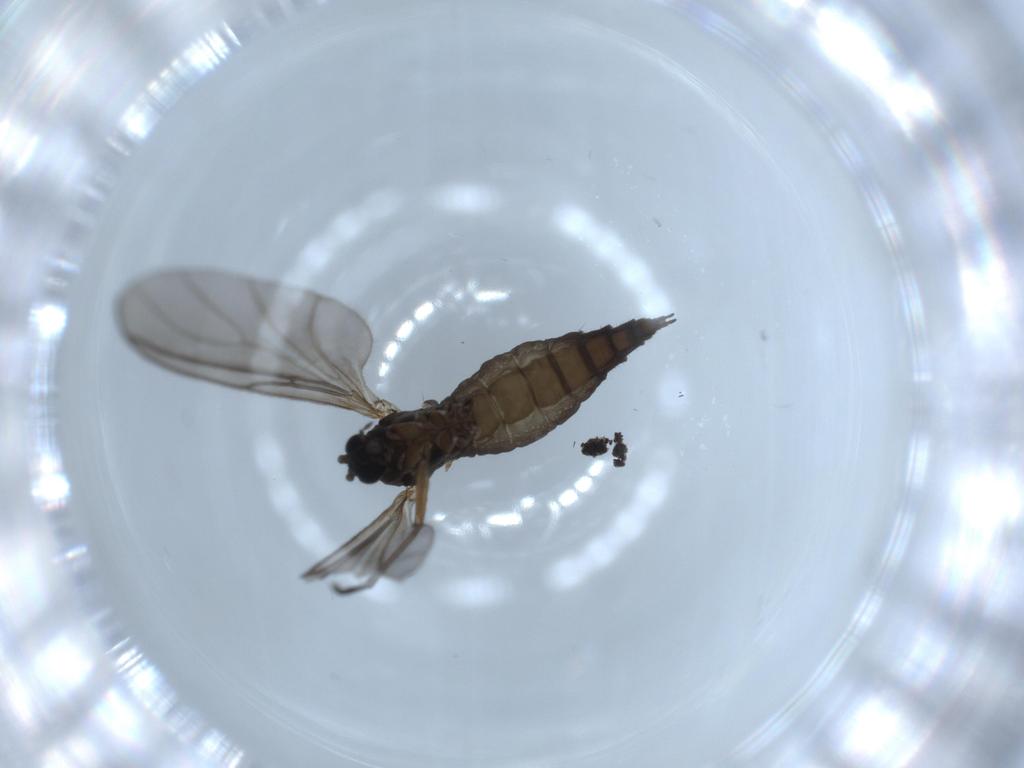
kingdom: Animalia
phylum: Arthropoda
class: Insecta
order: Diptera
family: Sciaridae
